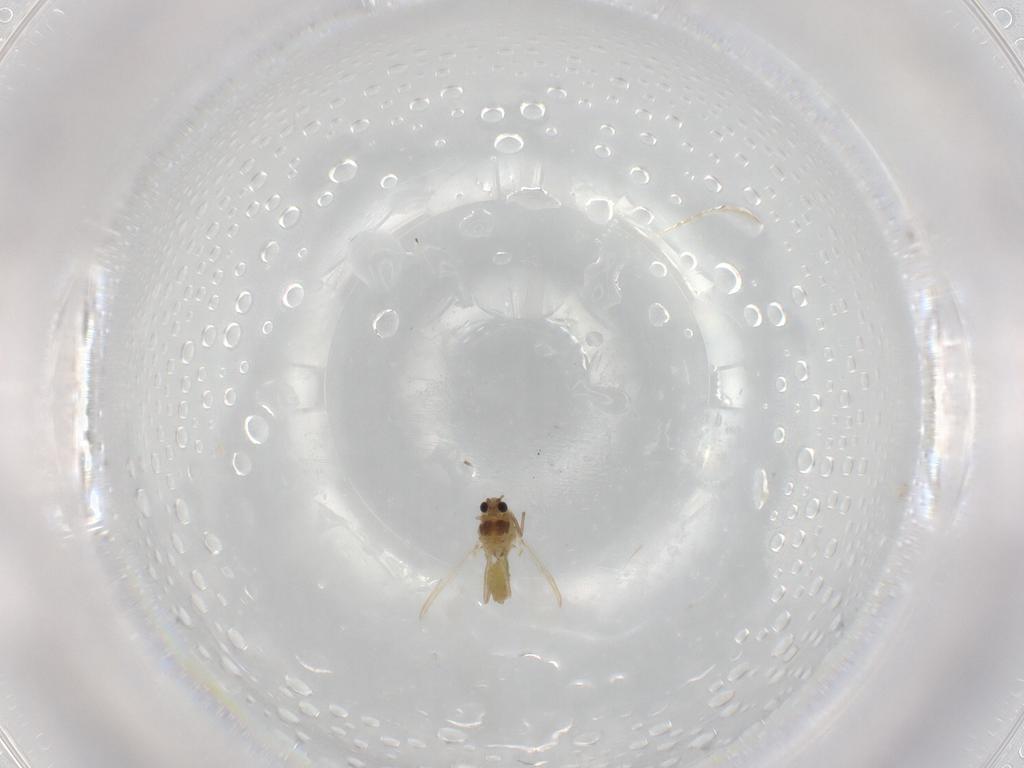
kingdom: Animalia
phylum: Arthropoda
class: Insecta
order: Diptera
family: Chironomidae
